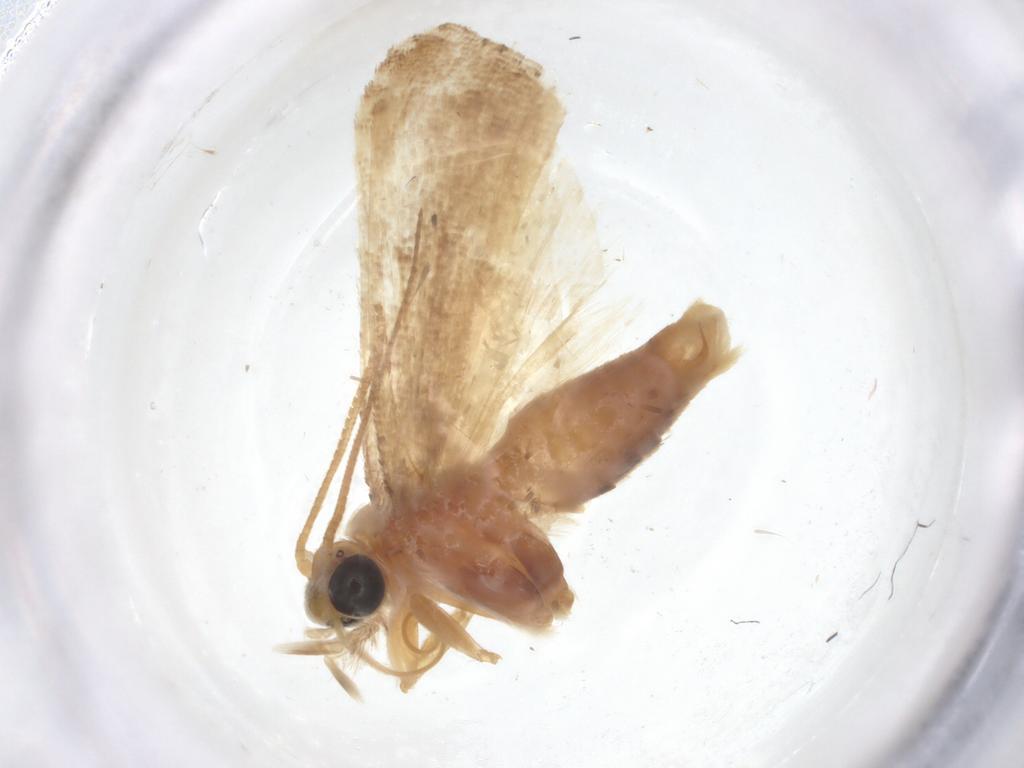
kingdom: Animalia
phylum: Arthropoda
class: Insecta
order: Lepidoptera
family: Pyralidae
